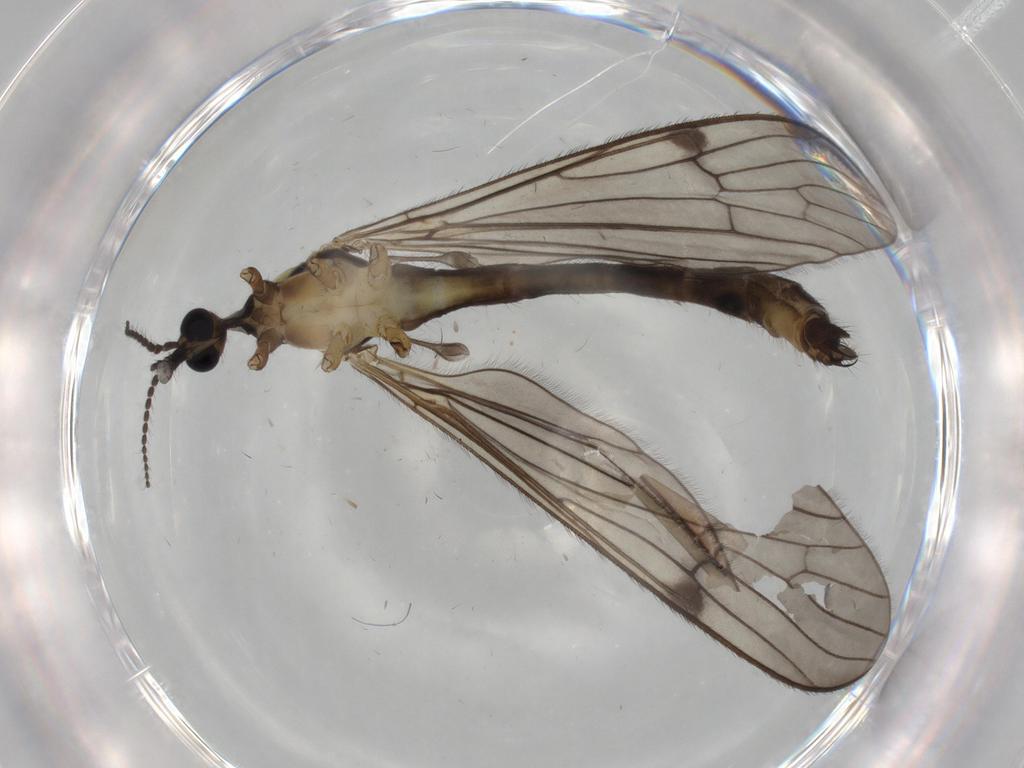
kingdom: Animalia
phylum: Arthropoda
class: Insecta
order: Diptera
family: Limoniidae
